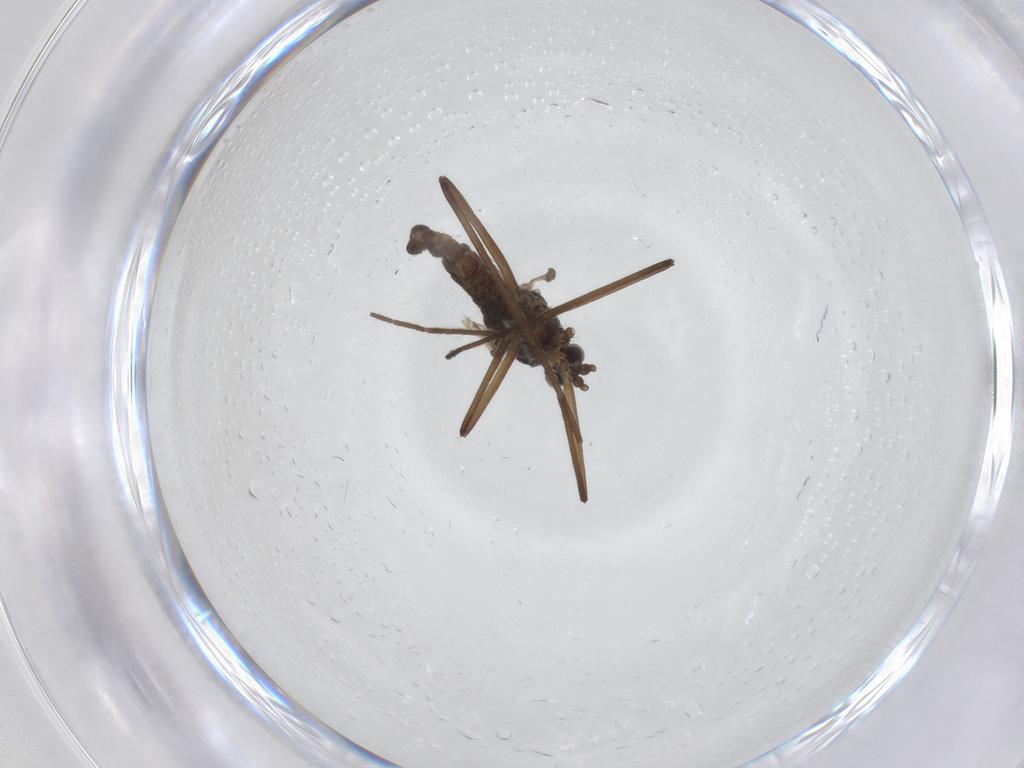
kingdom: Animalia
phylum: Arthropoda
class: Insecta
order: Diptera
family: Cecidomyiidae
